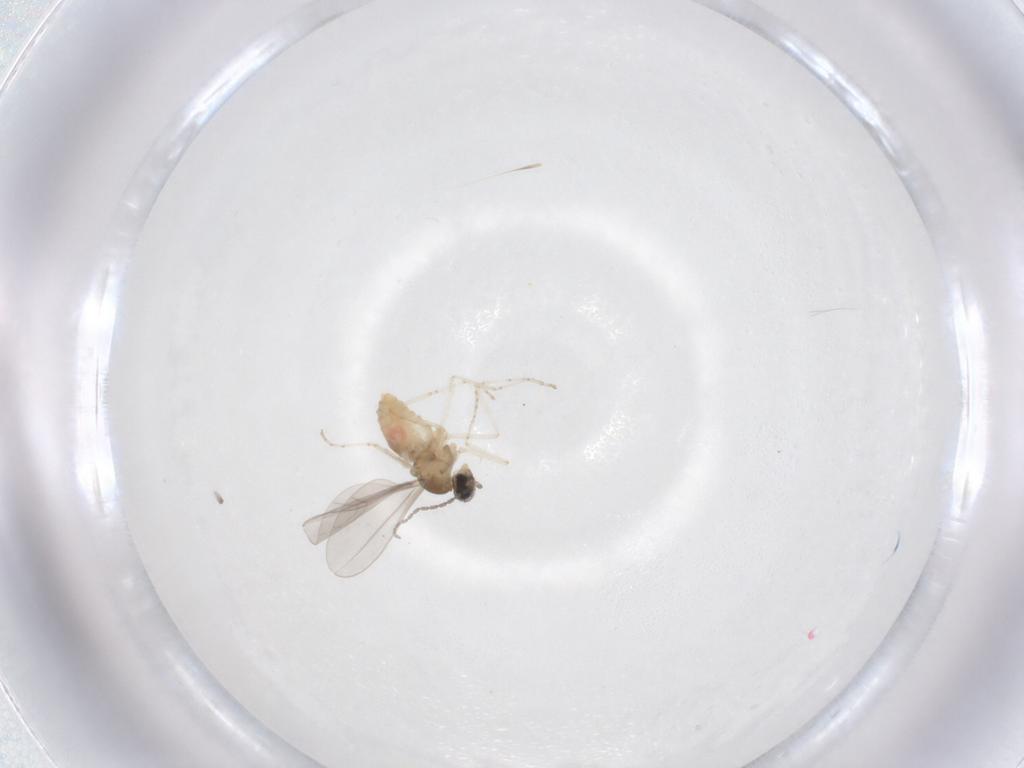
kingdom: Animalia
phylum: Arthropoda
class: Insecta
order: Diptera
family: Cecidomyiidae
